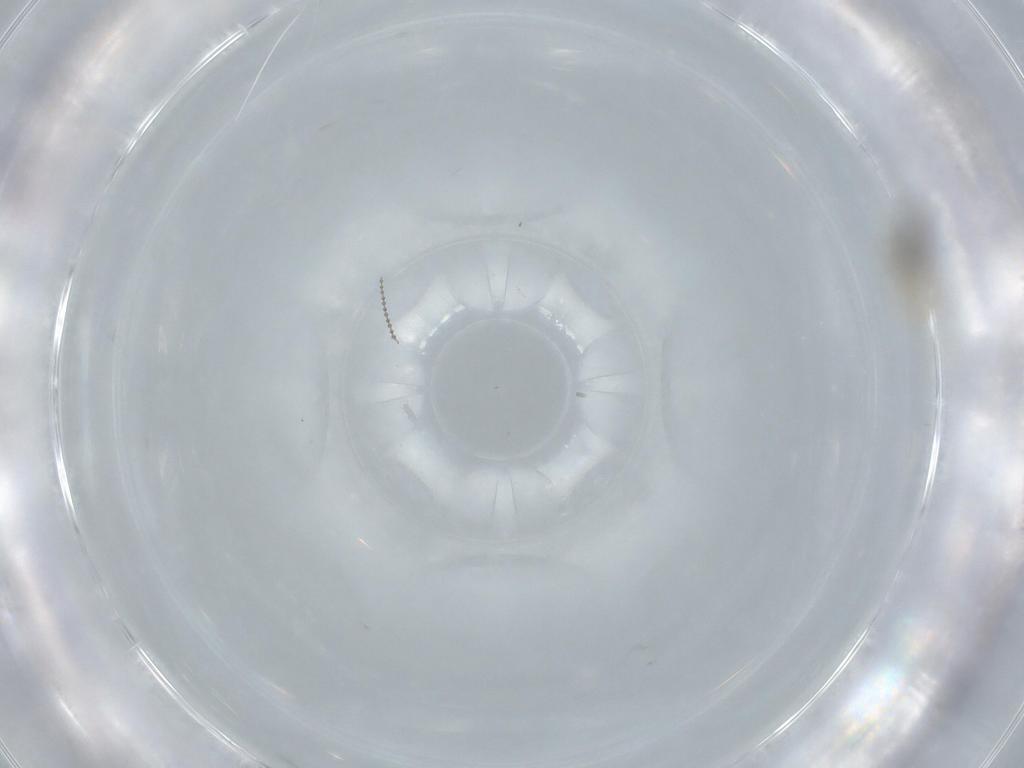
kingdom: Animalia
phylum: Arthropoda
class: Insecta
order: Diptera
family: Cecidomyiidae
